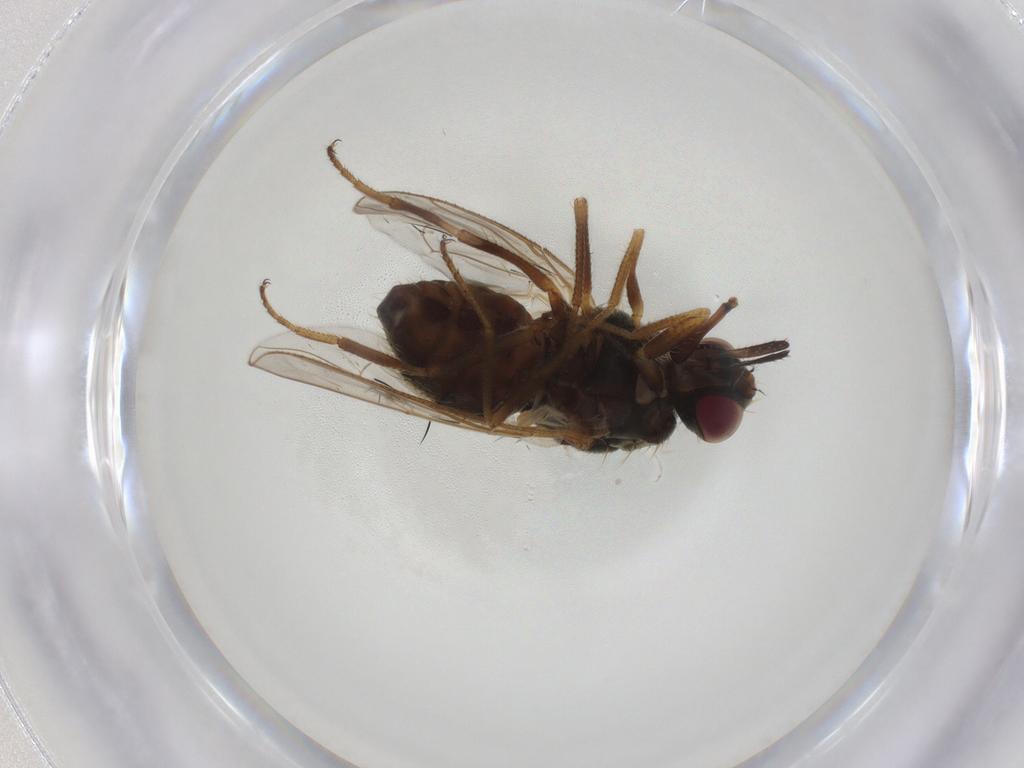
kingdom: Animalia
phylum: Arthropoda
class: Insecta
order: Diptera
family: Muscidae
